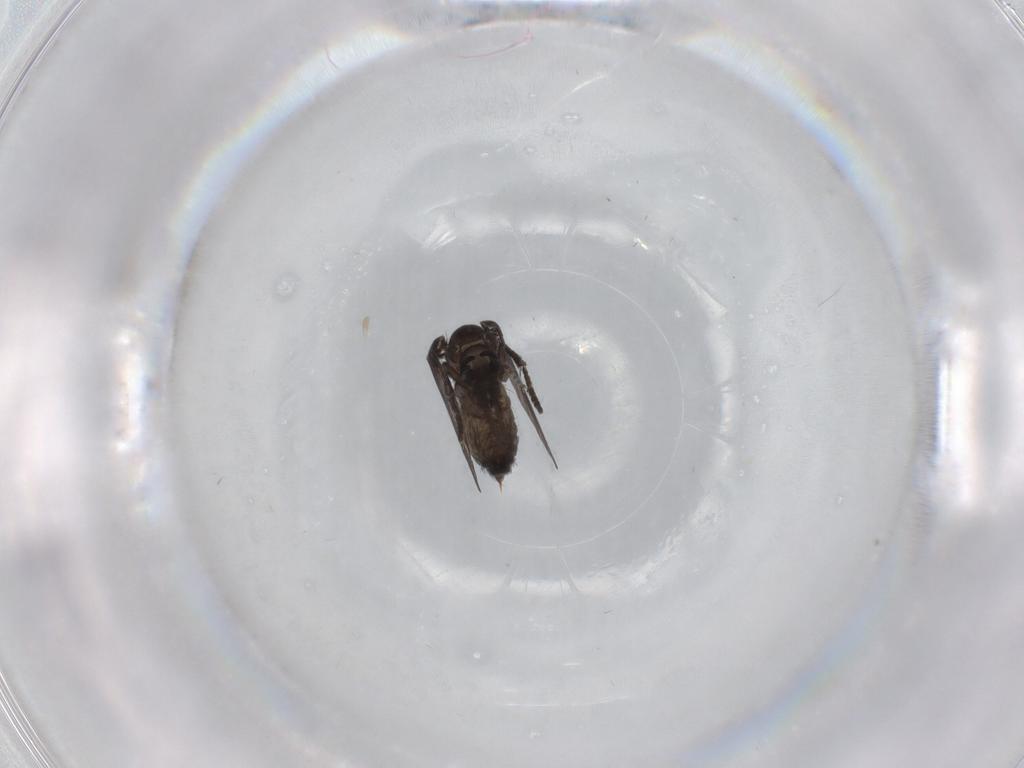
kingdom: Animalia
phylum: Arthropoda
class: Insecta
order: Diptera
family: Psychodidae
